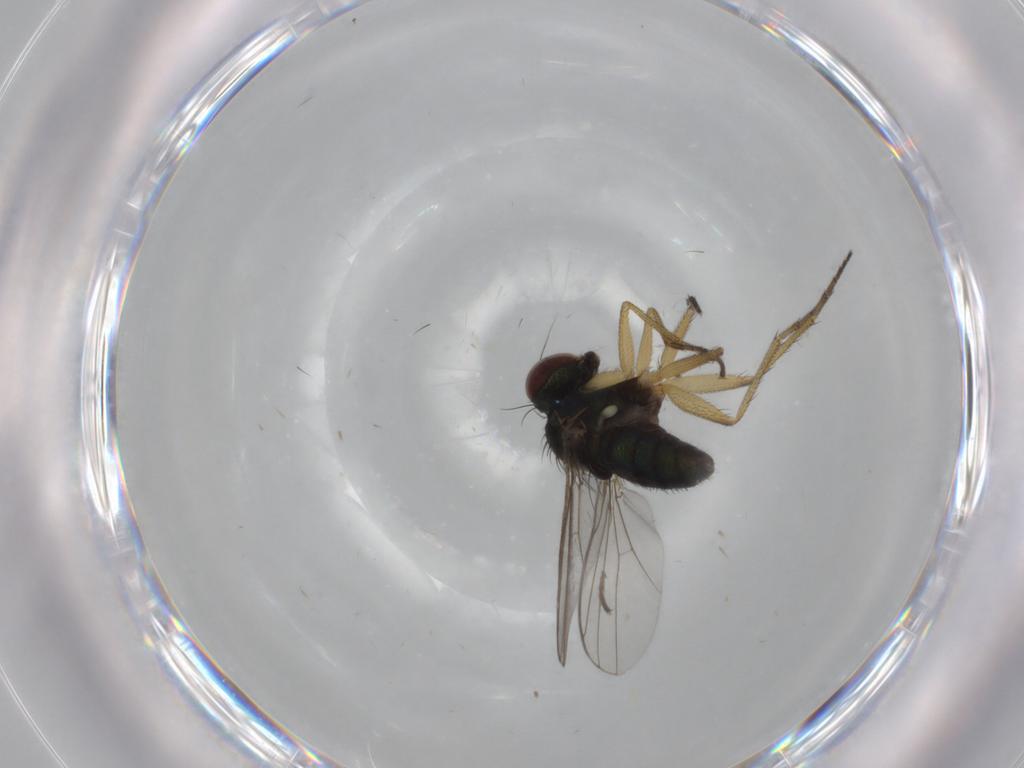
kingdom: Animalia
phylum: Arthropoda
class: Insecta
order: Diptera
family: Dolichopodidae
